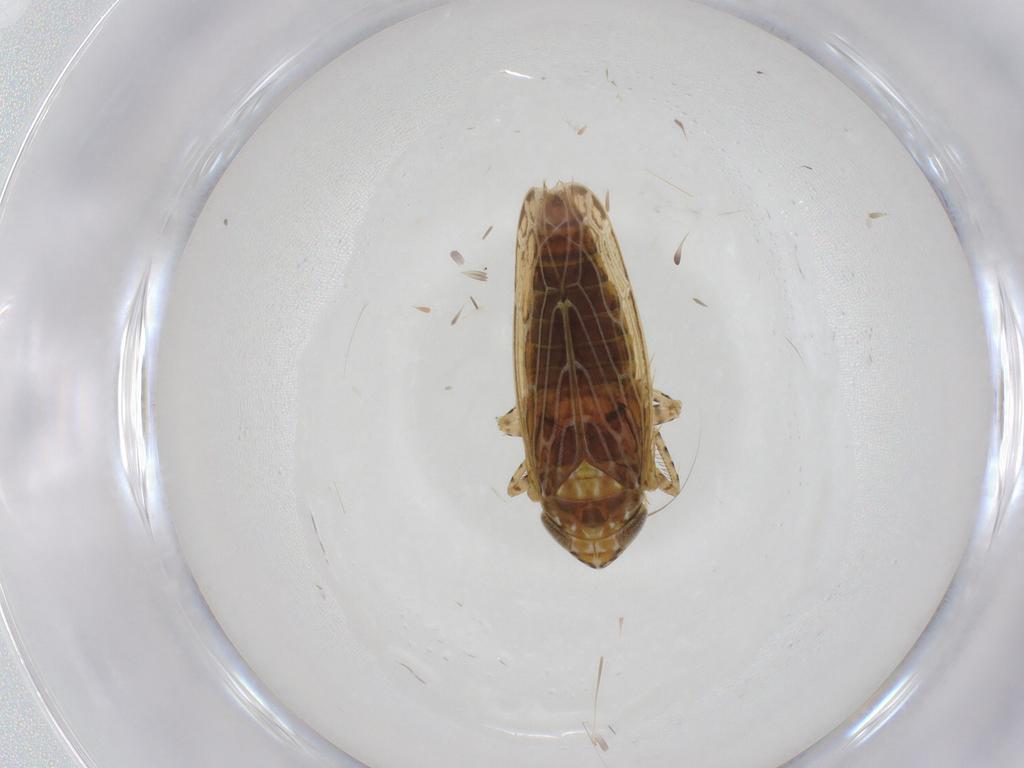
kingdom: Animalia
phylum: Arthropoda
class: Insecta
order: Hemiptera
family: Cicadellidae
